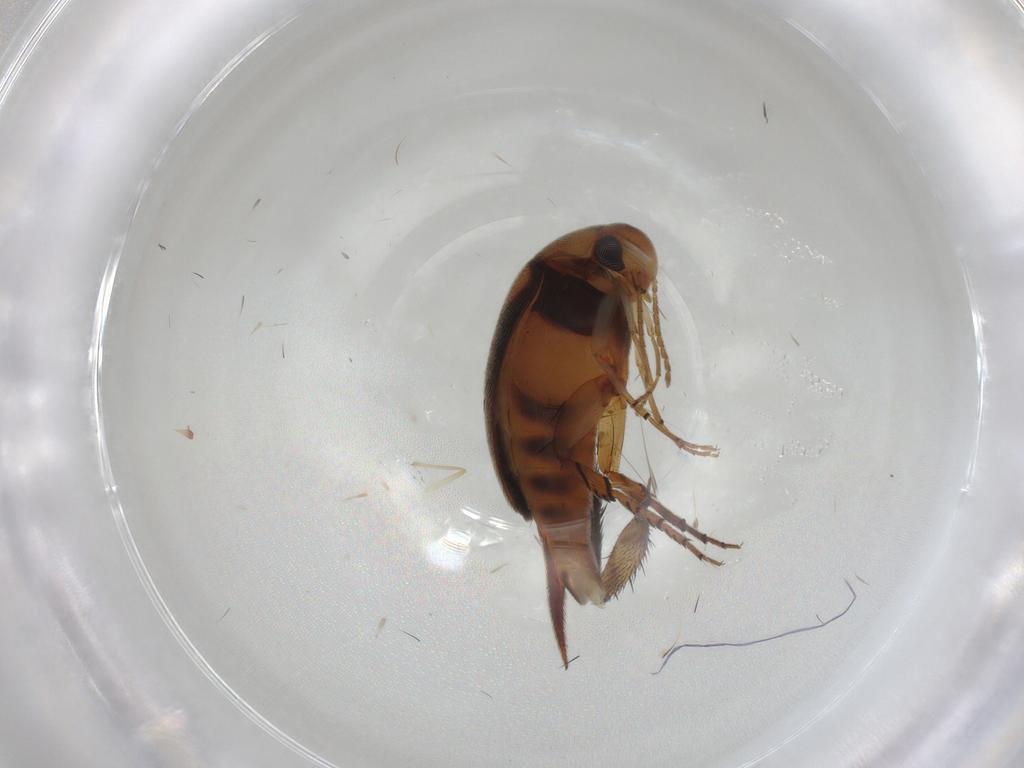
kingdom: Animalia
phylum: Arthropoda
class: Insecta
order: Coleoptera
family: Mordellidae
